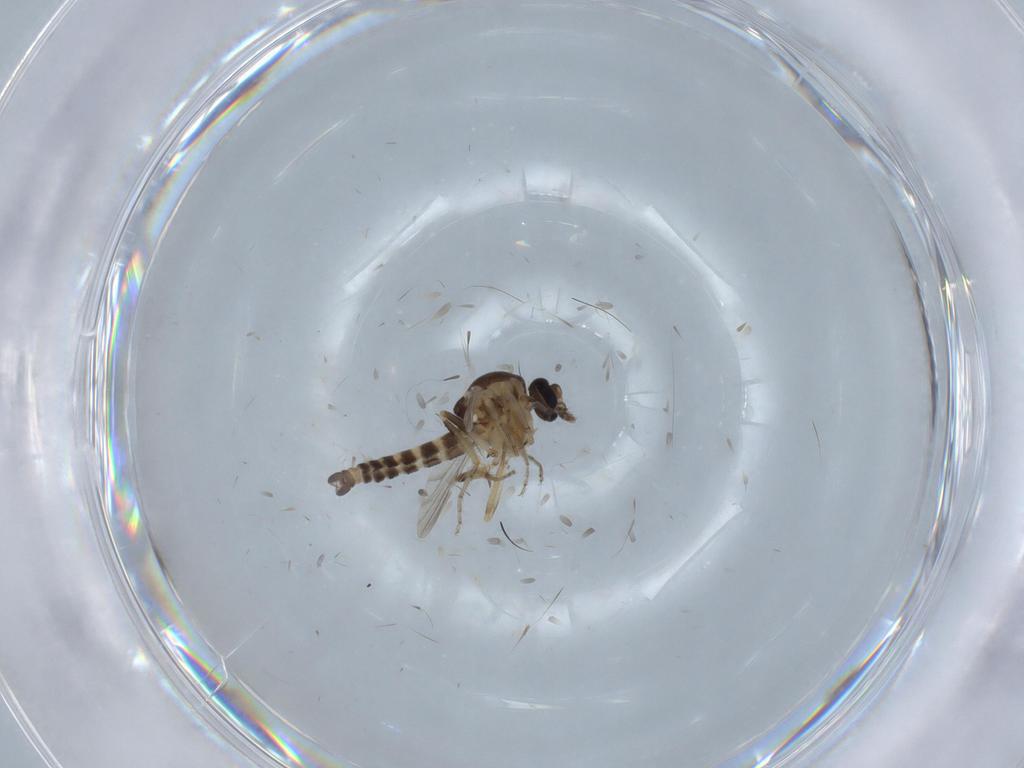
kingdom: Animalia
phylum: Arthropoda
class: Insecta
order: Diptera
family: Ceratopogonidae
